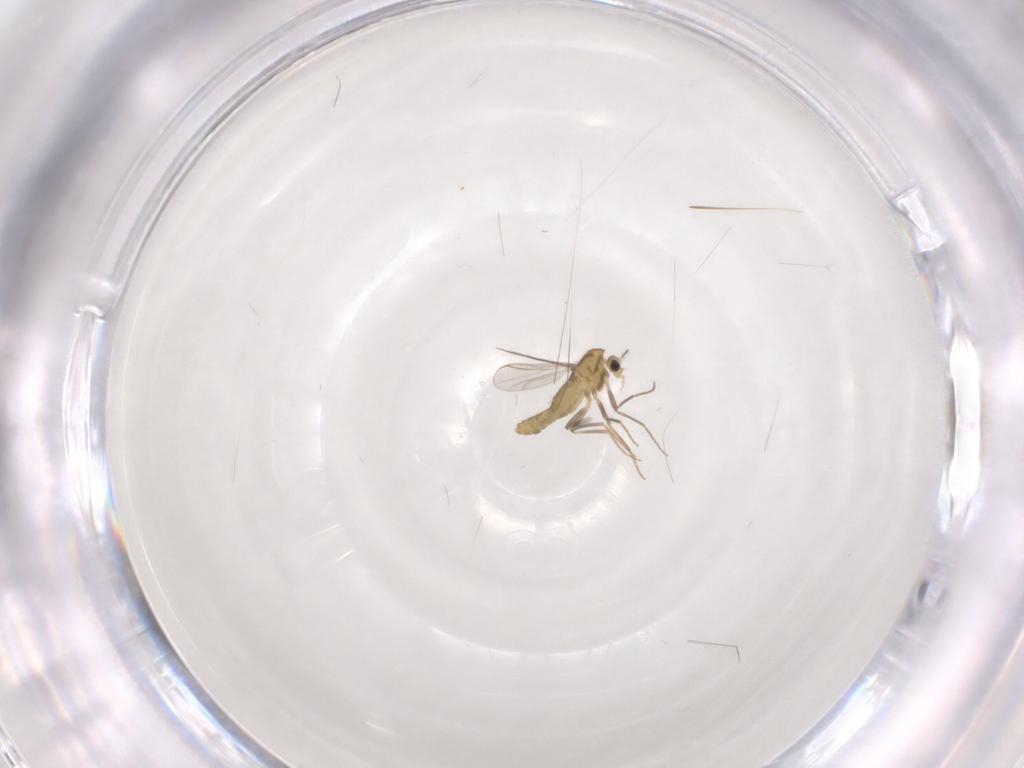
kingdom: Animalia
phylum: Arthropoda
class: Insecta
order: Diptera
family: Chironomidae
